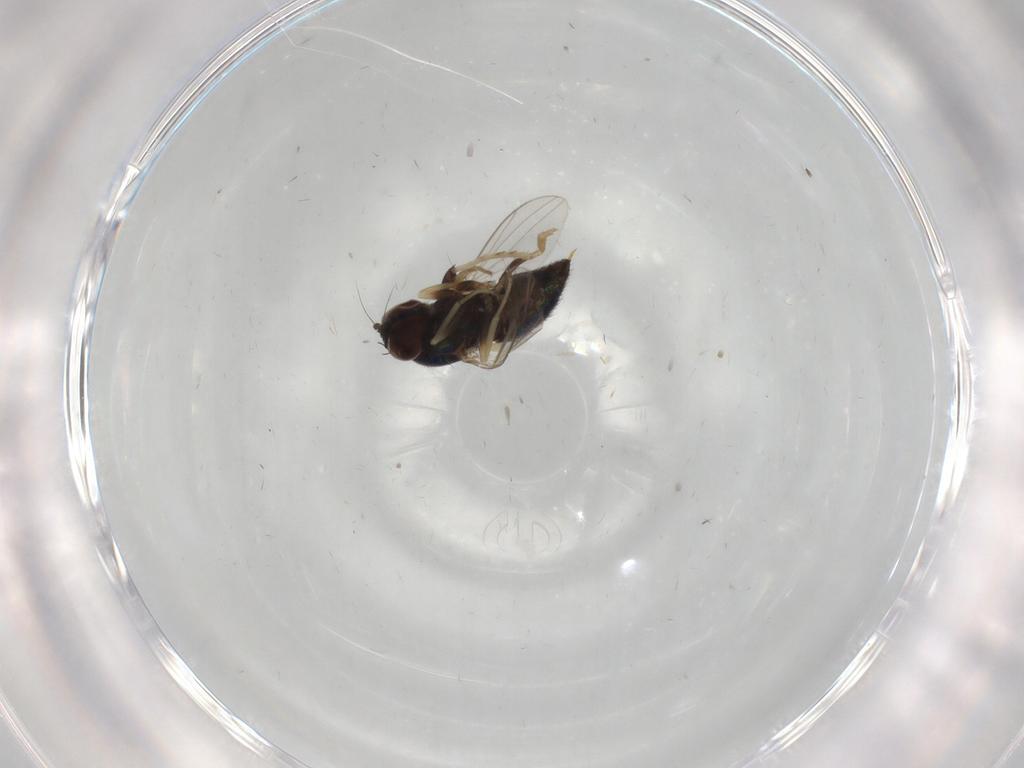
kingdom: Animalia
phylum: Arthropoda
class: Insecta
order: Diptera
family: Dolichopodidae
